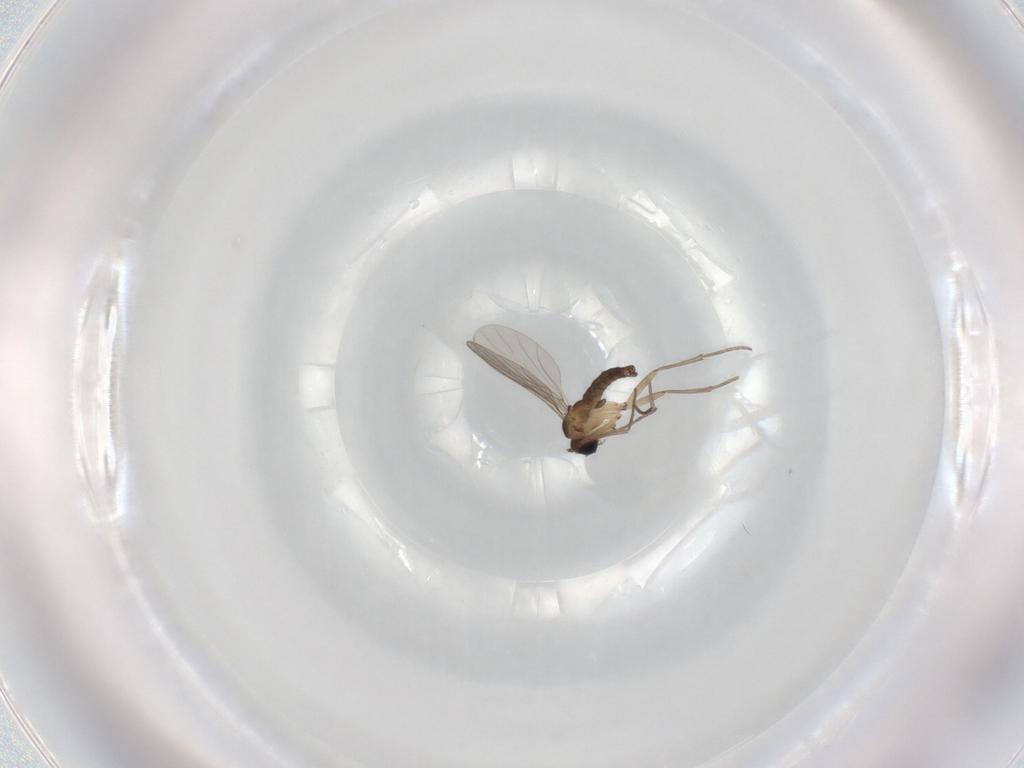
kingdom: Animalia
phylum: Arthropoda
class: Insecta
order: Diptera
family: Sciaridae
